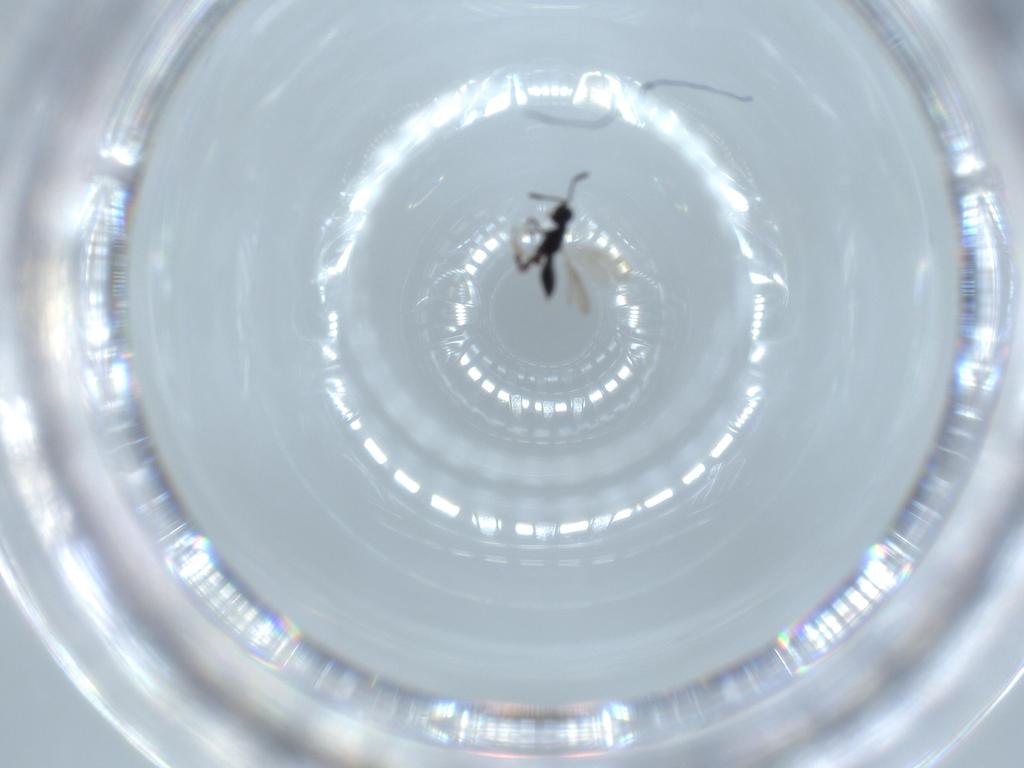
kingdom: Animalia
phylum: Arthropoda
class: Insecta
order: Hymenoptera
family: Scelionidae
